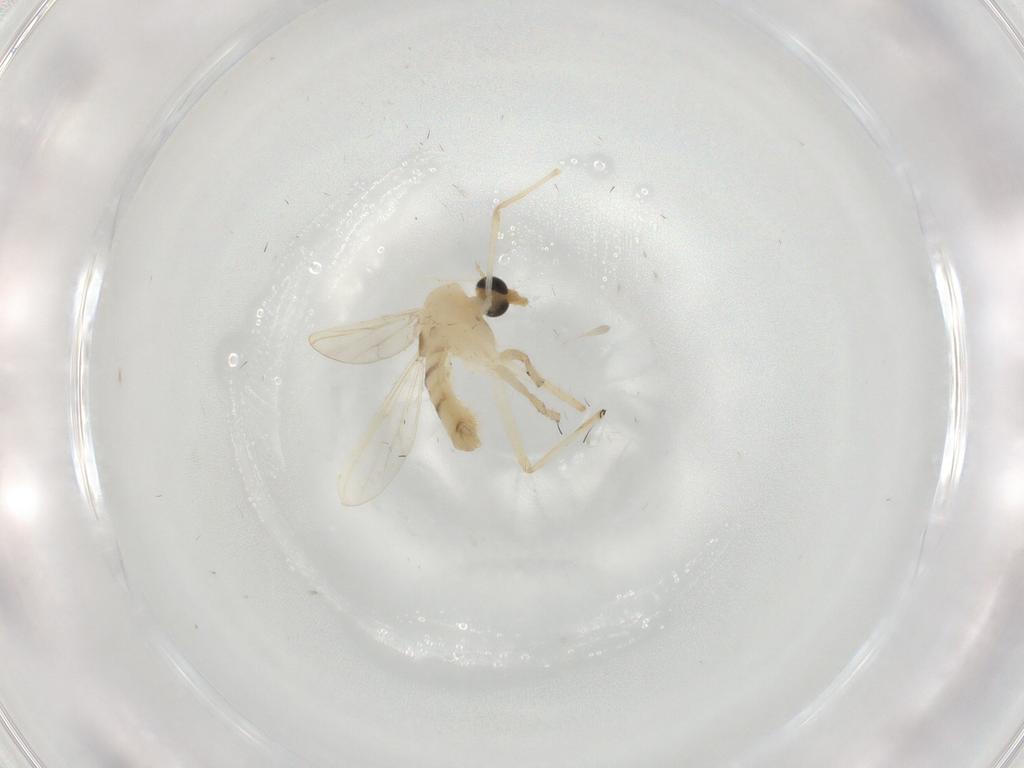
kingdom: Animalia
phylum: Arthropoda
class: Insecta
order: Diptera
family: Chironomidae
